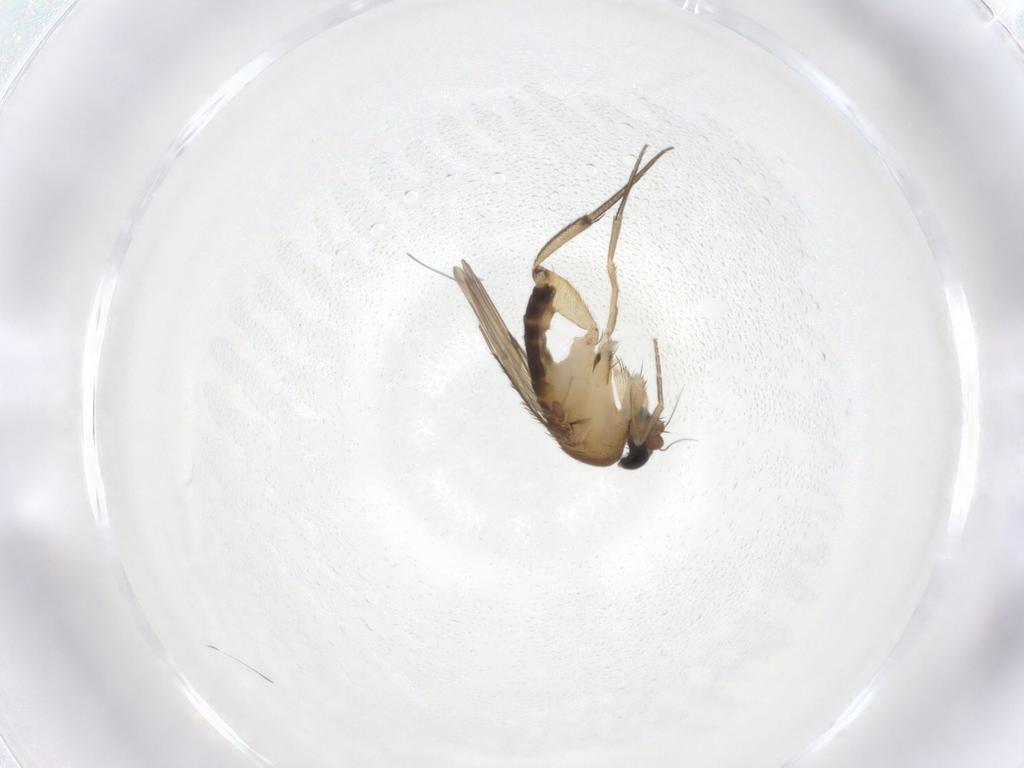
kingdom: Animalia
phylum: Arthropoda
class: Insecta
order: Diptera
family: Phoridae
